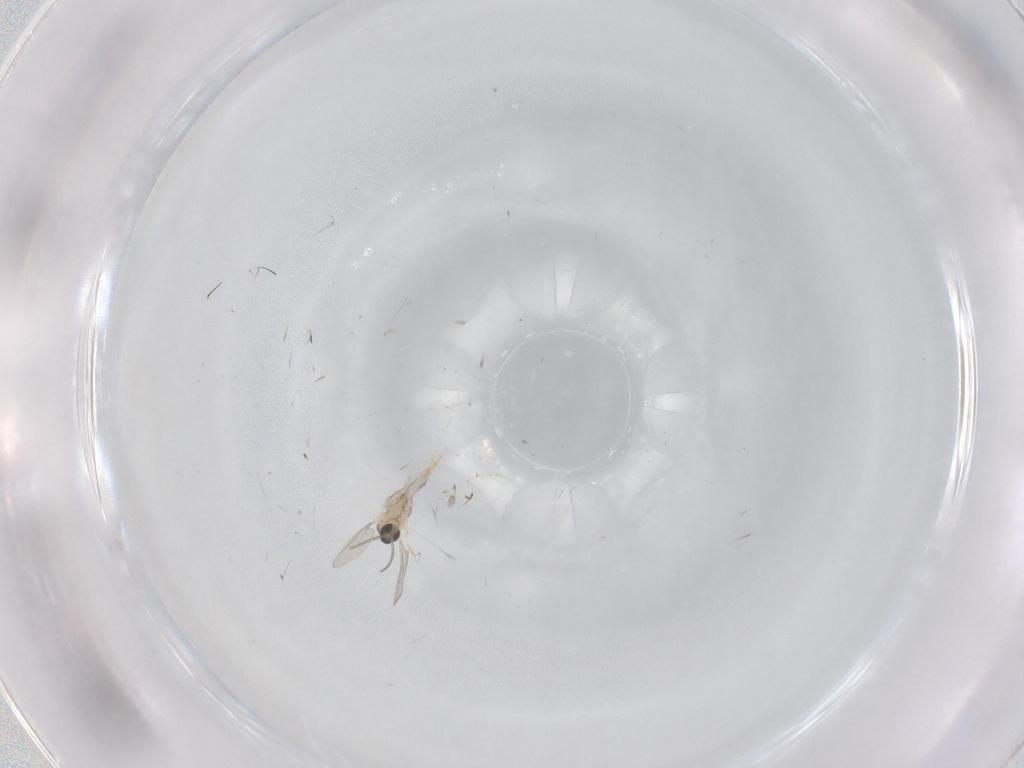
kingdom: Animalia
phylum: Arthropoda
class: Insecta
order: Diptera
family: Cecidomyiidae
